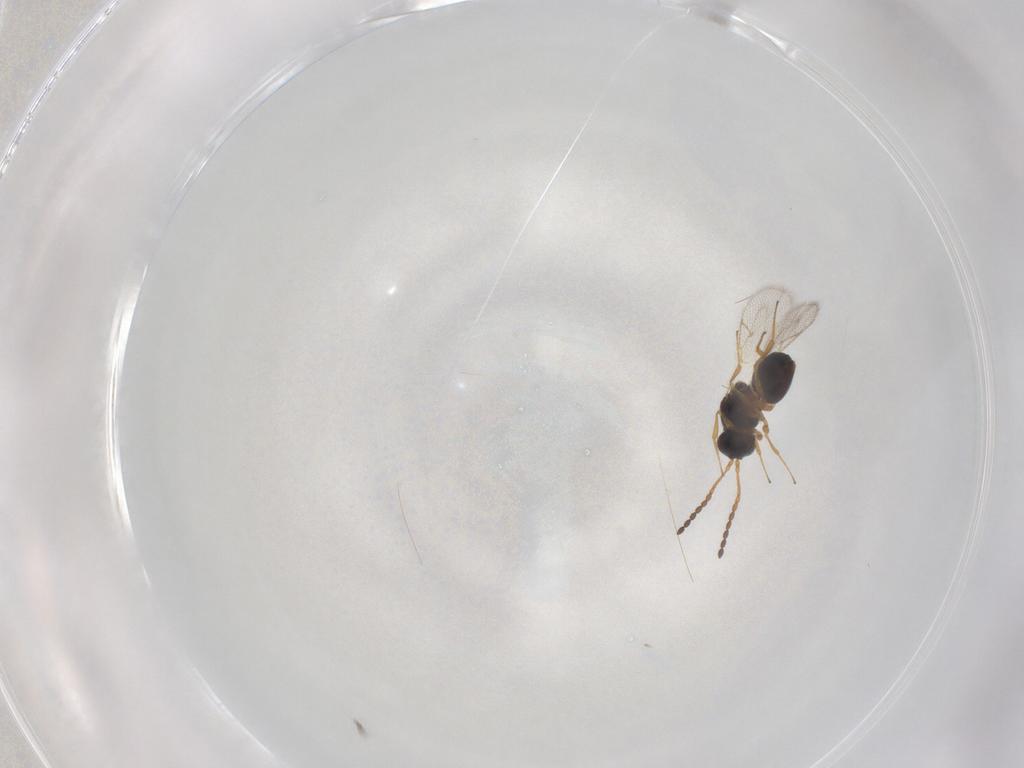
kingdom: Animalia
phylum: Arthropoda
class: Insecta
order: Hymenoptera
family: Figitidae
